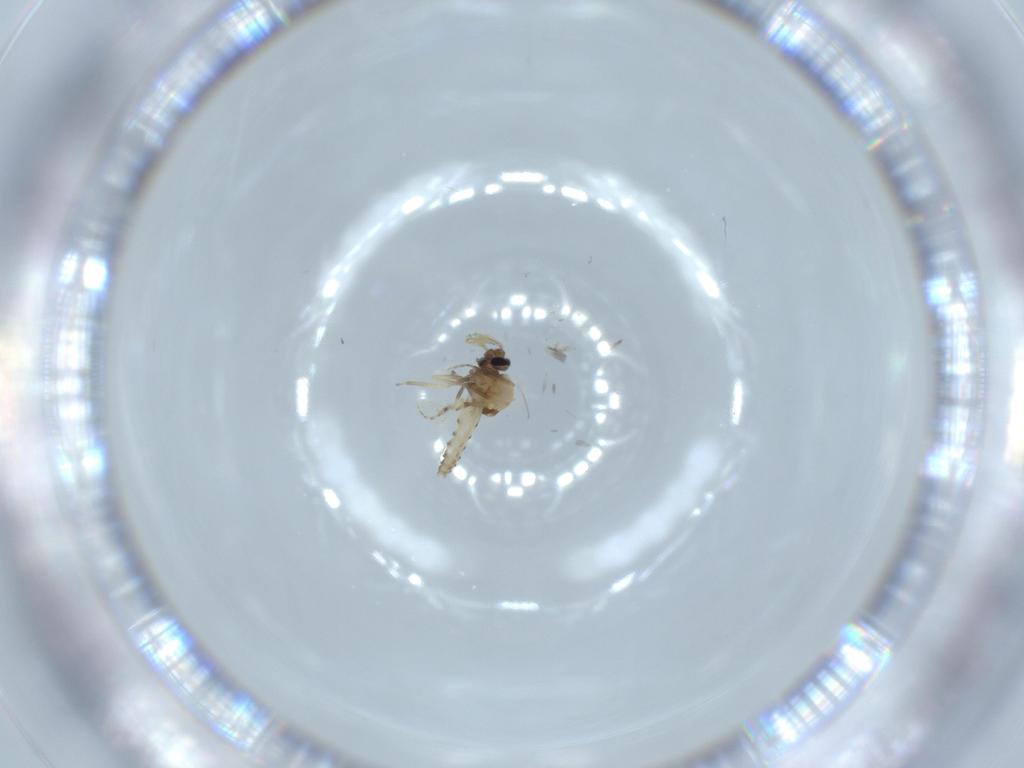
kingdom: Animalia
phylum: Arthropoda
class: Insecta
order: Diptera
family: Ceratopogonidae
